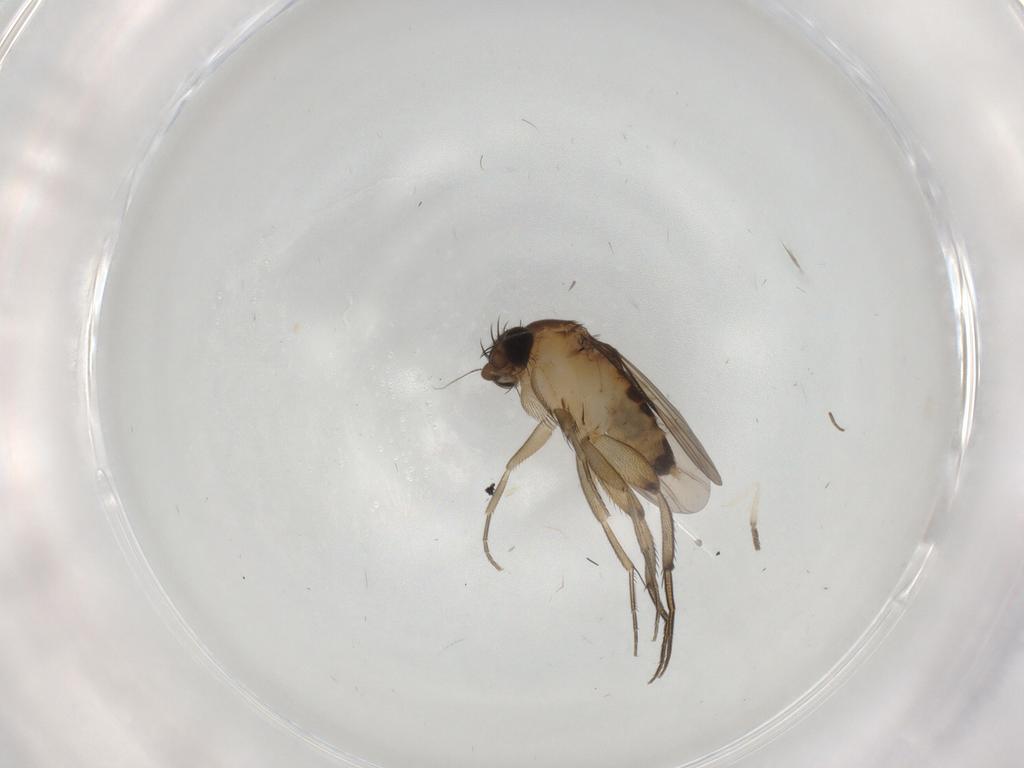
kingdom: Animalia
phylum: Arthropoda
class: Insecta
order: Diptera
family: Phoridae
